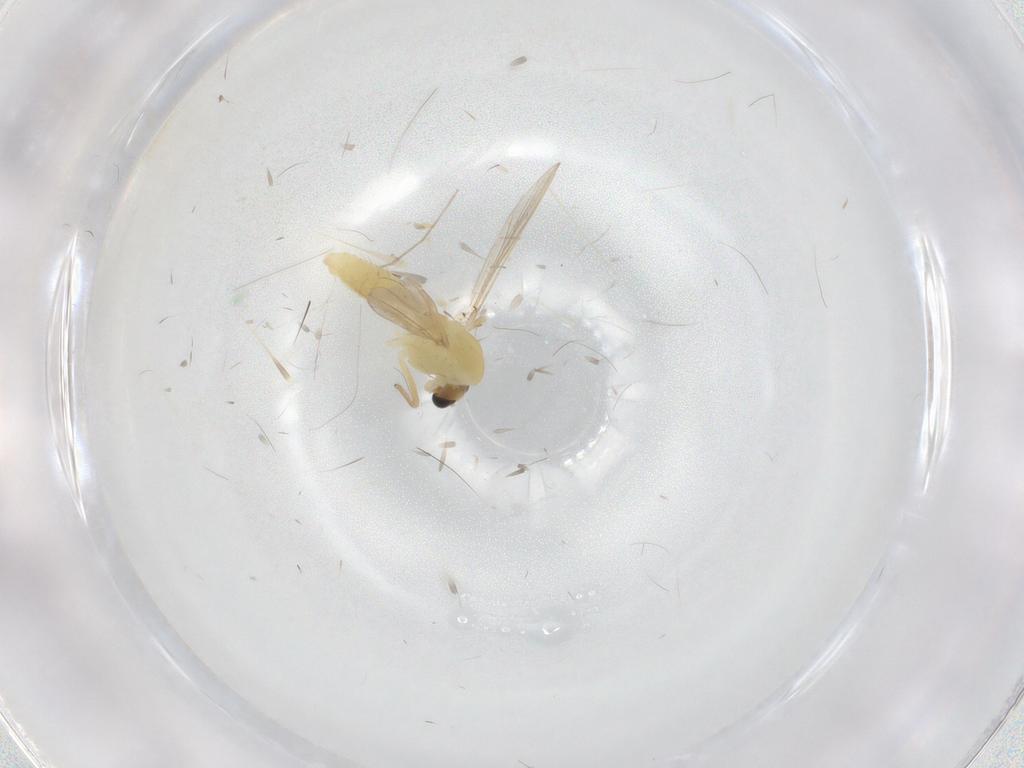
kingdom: Animalia
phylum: Arthropoda
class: Insecta
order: Diptera
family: Chironomidae
